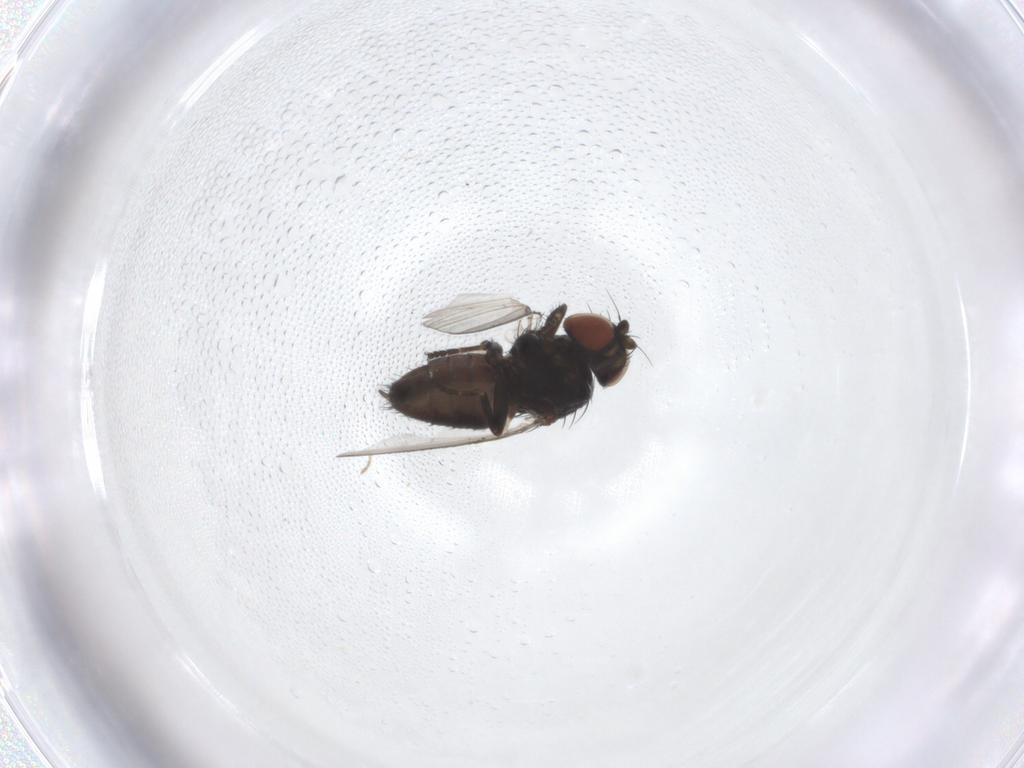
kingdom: Animalia
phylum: Arthropoda
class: Insecta
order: Diptera
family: Milichiidae
